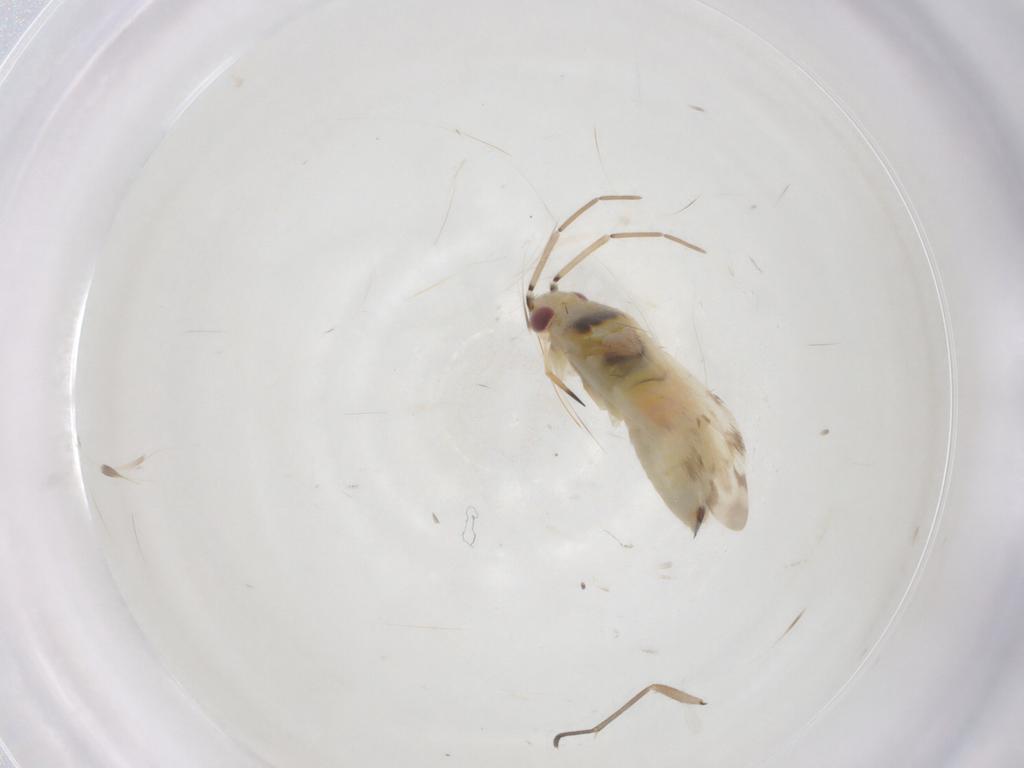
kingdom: Animalia
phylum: Arthropoda
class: Insecta
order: Hemiptera
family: Miridae
